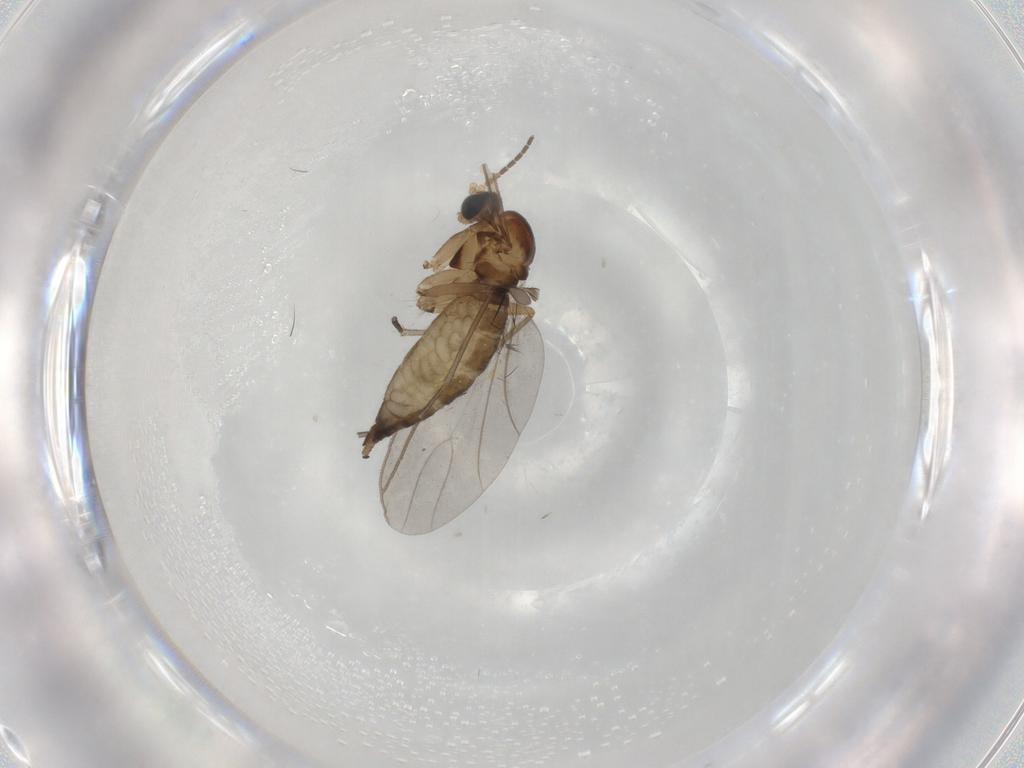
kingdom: Animalia
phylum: Arthropoda
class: Insecta
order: Diptera
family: Sciaridae
